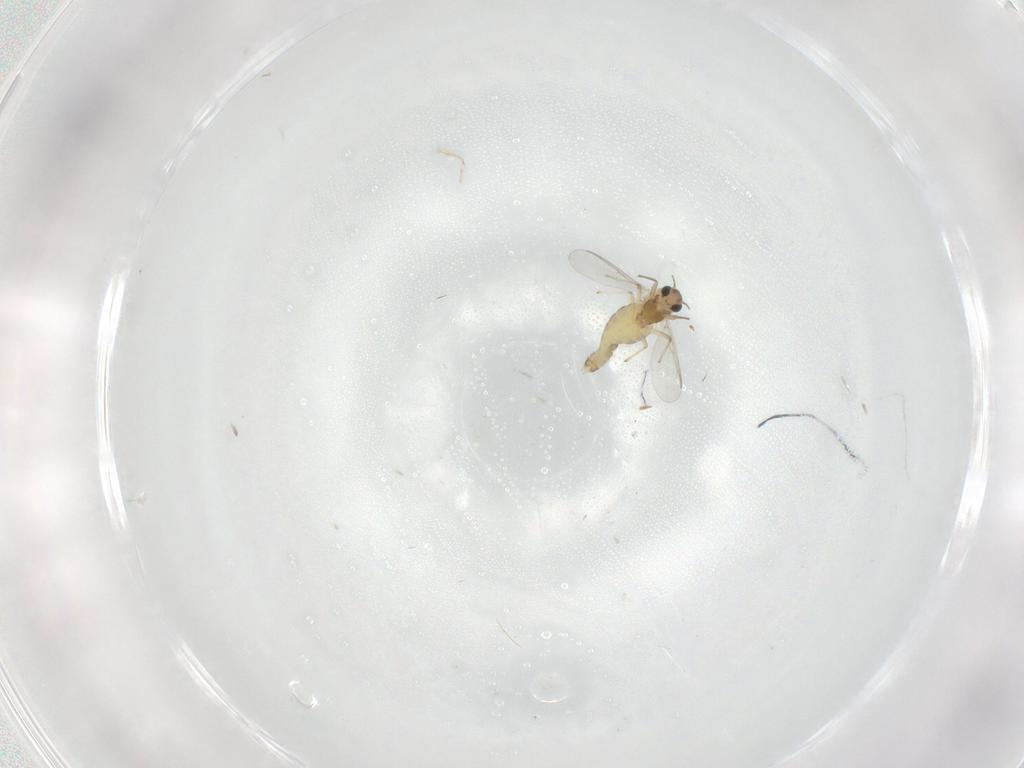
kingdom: Animalia
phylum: Arthropoda
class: Insecta
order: Diptera
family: Chironomidae
